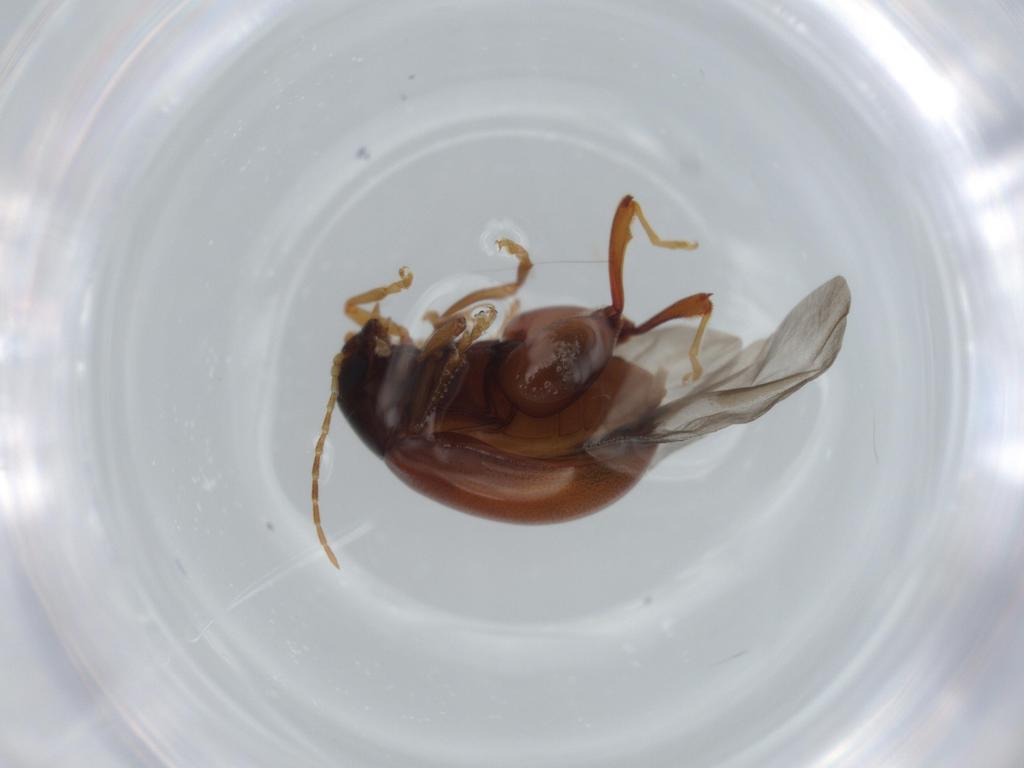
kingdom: Animalia
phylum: Arthropoda
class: Insecta
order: Coleoptera
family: Chrysomelidae
